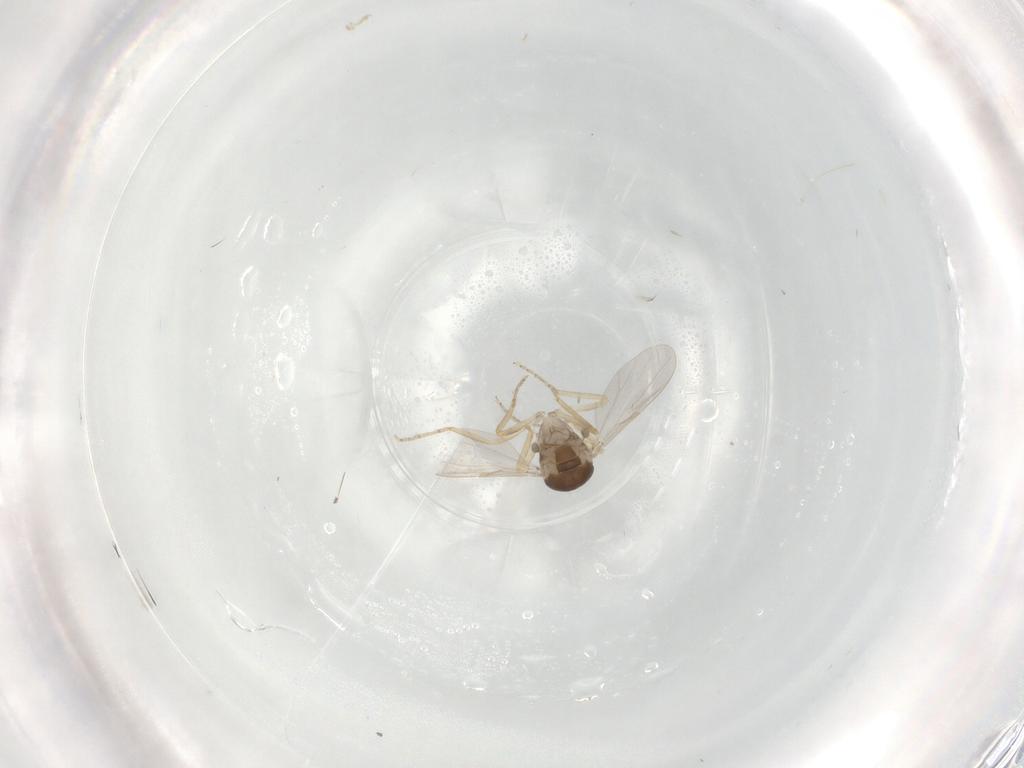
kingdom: Animalia
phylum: Arthropoda
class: Insecta
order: Diptera
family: Ceratopogonidae
